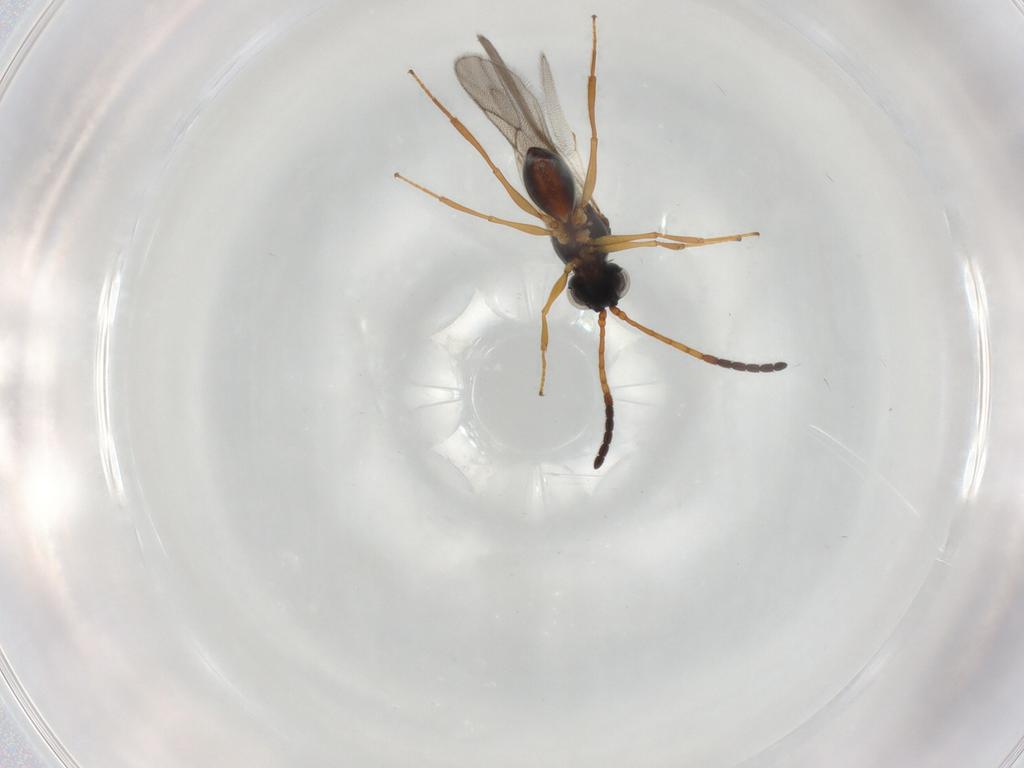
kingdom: Animalia
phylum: Arthropoda
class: Insecta
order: Hymenoptera
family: Figitidae
